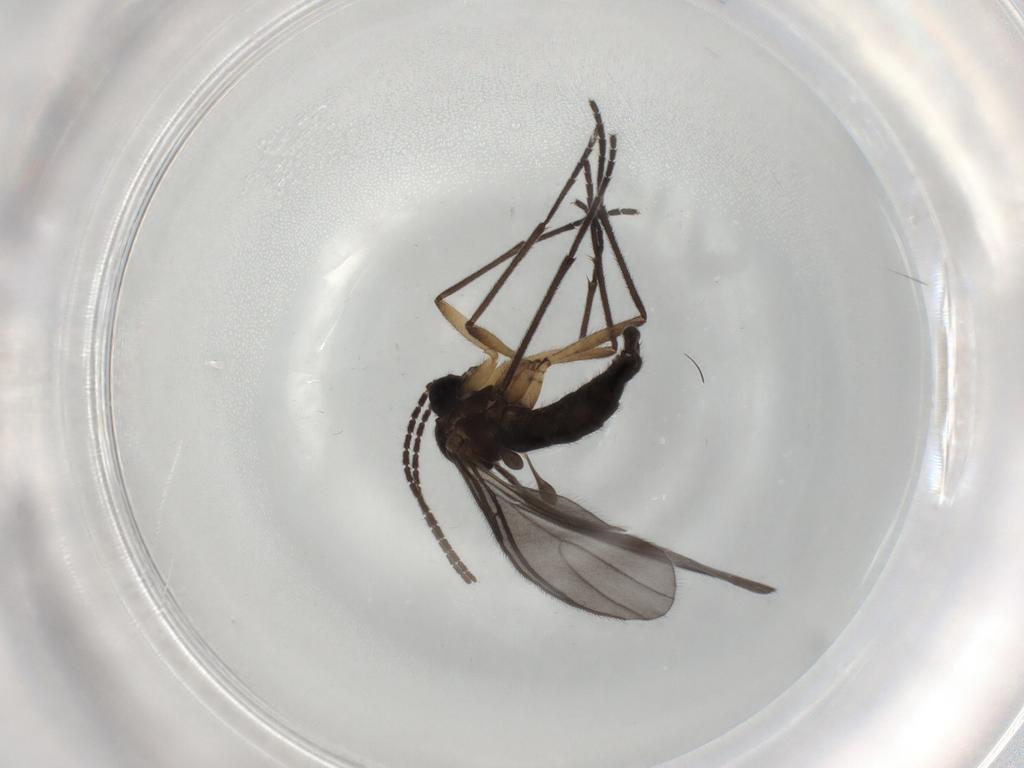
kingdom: Animalia
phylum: Arthropoda
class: Insecta
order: Diptera
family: Sciaridae
